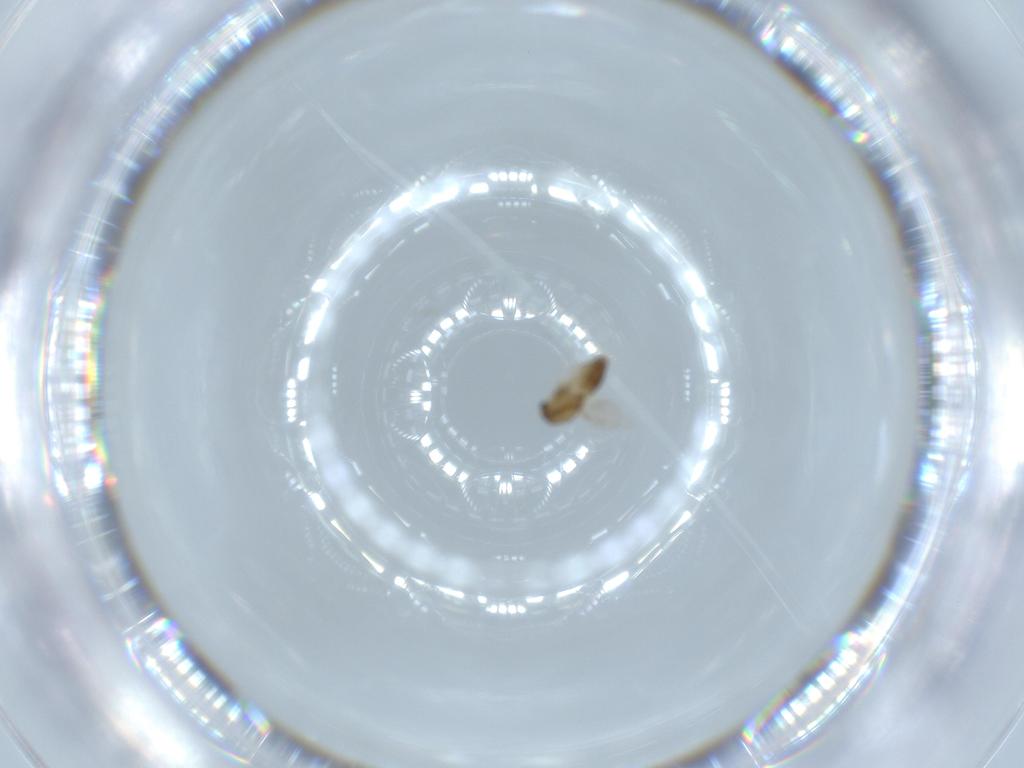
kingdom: Animalia
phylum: Arthropoda
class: Insecta
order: Diptera
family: Chironomidae
